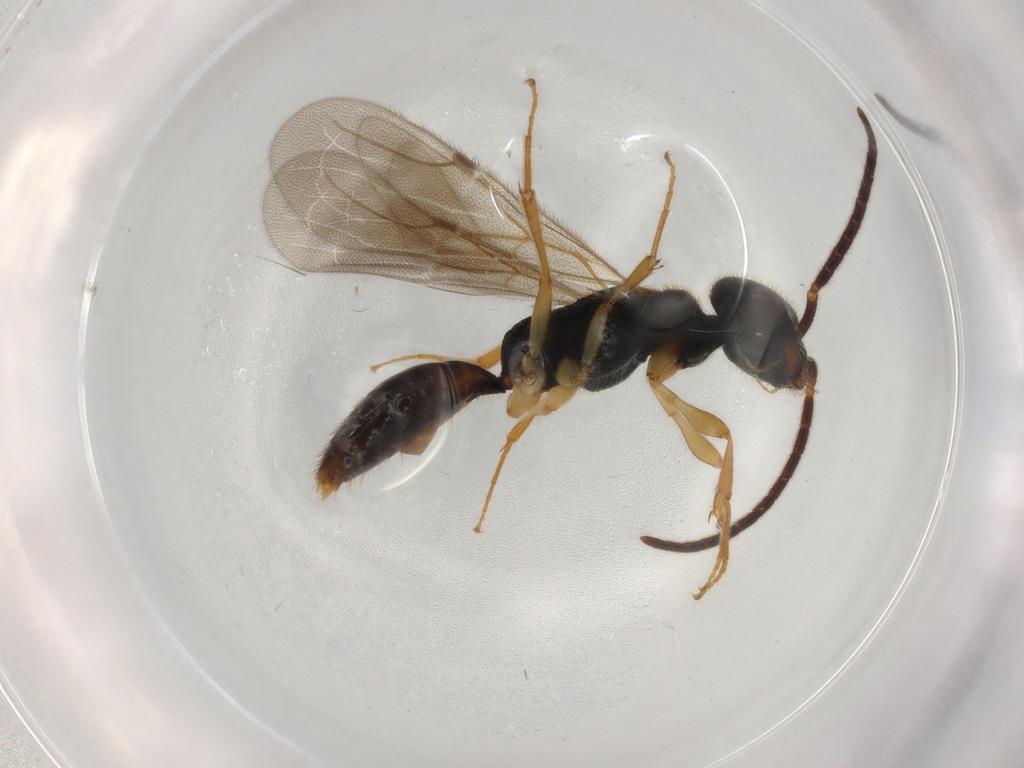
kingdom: Animalia
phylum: Arthropoda
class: Insecta
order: Hymenoptera
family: Bethylidae
